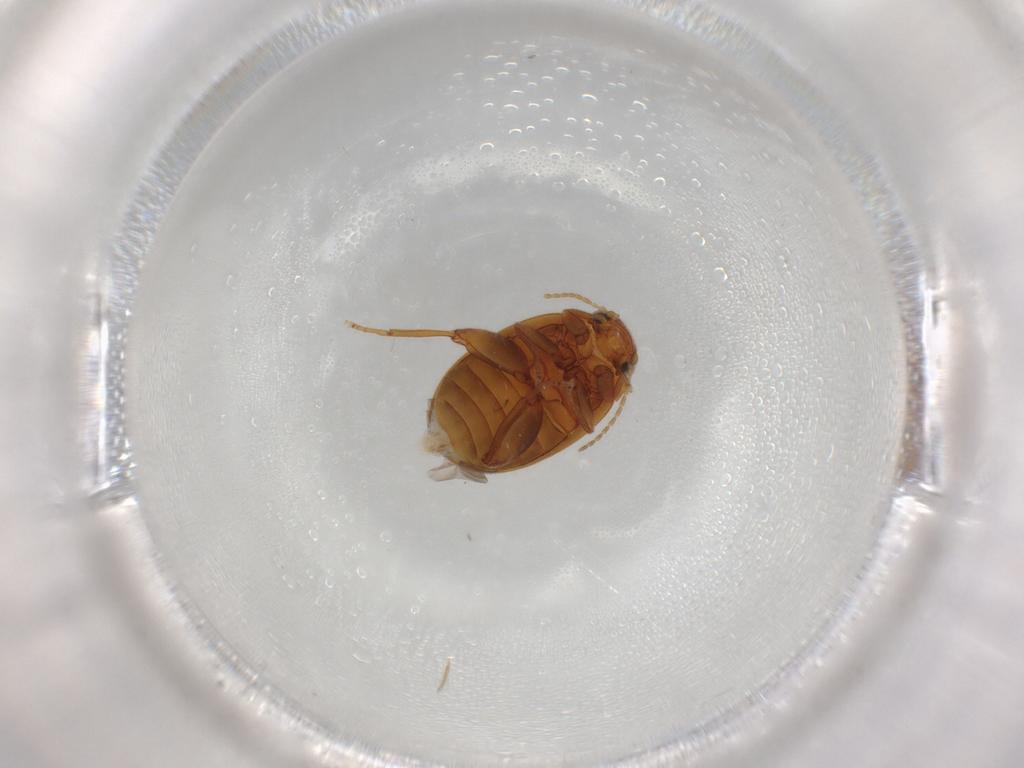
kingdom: Animalia
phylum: Arthropoda
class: Insecta
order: Coleoptera
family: Scirtidae
